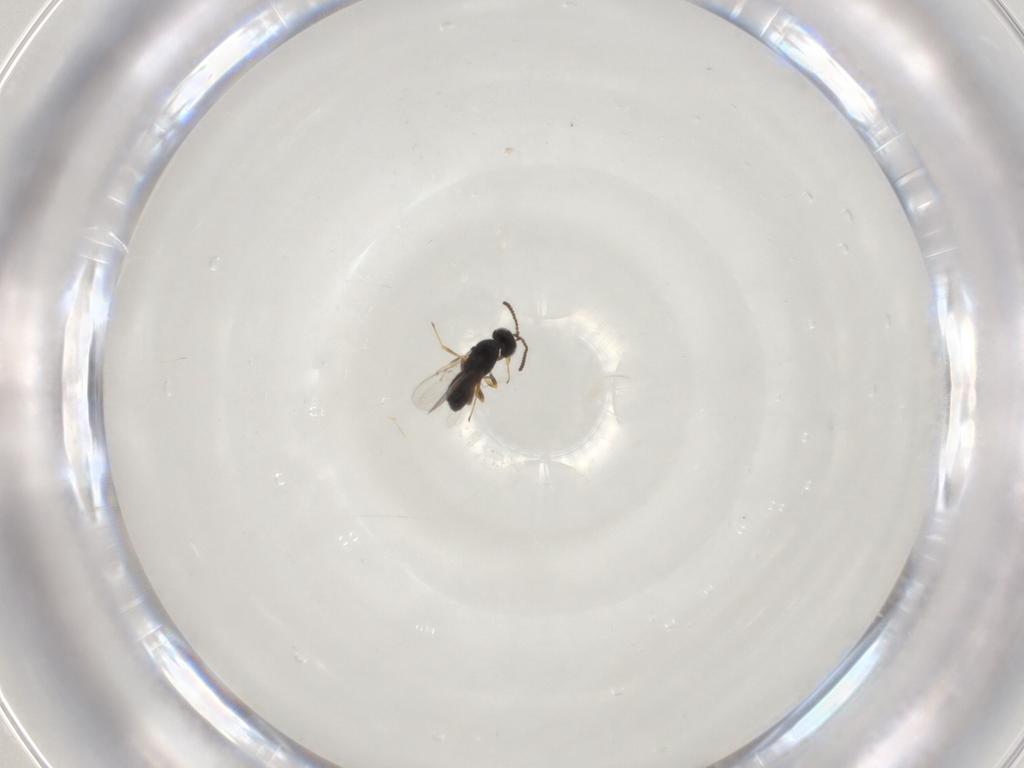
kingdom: Animalia
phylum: Arthropoda
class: Insecta
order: Hymenoptera
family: Scelionidae
